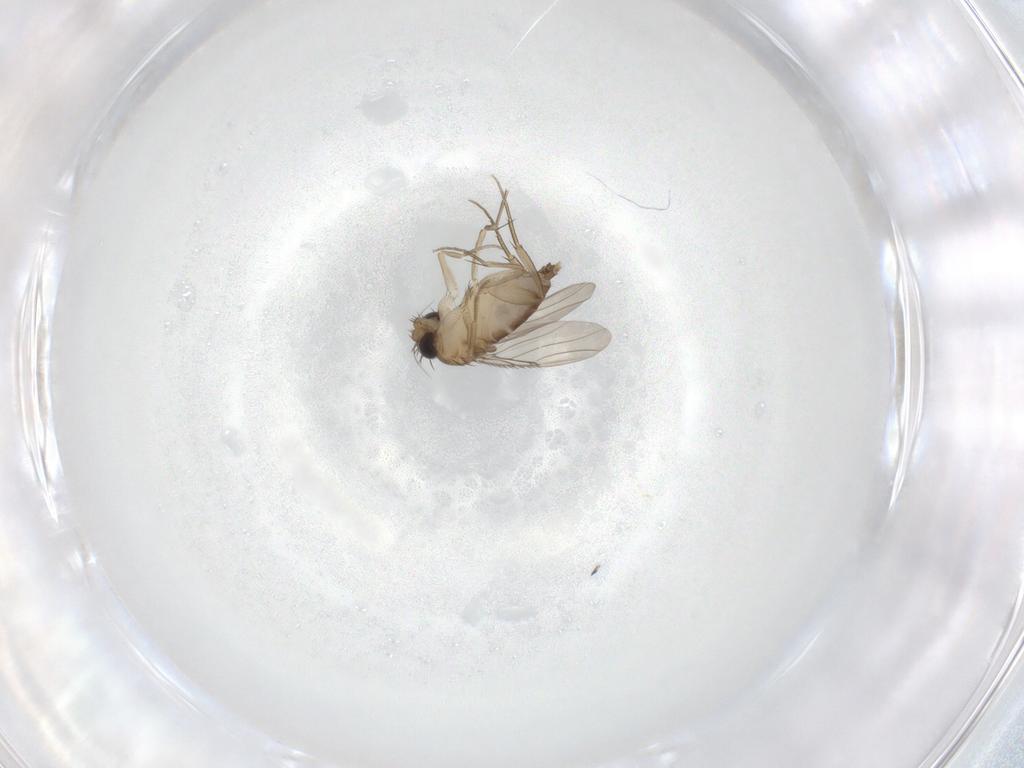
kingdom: Animalia
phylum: Arthropoda
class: Insecta
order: Diptera
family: Phoridae
